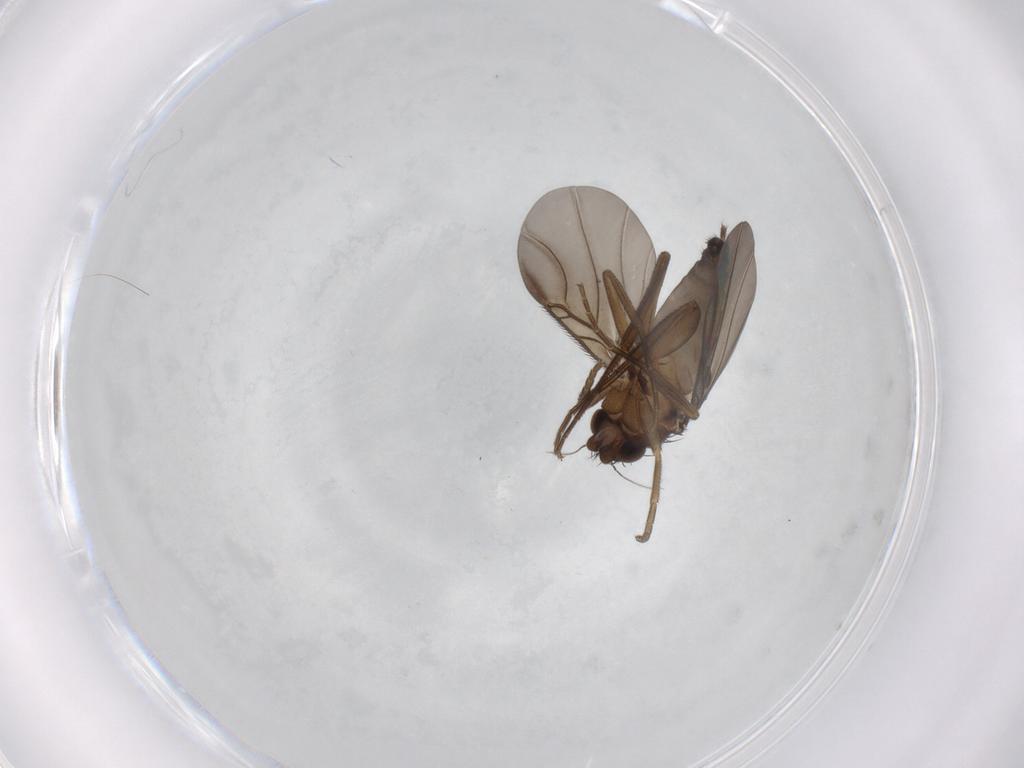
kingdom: Animalia
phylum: Arthropoda
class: Insecta
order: Diptera
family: Phoridae
